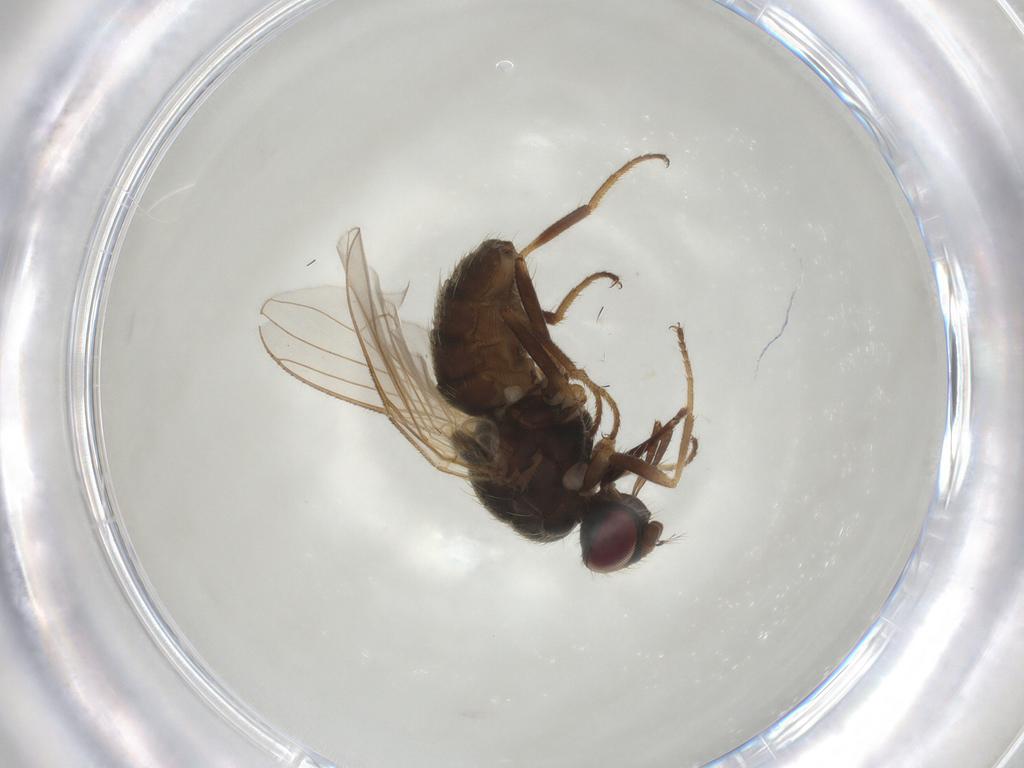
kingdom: Animalia
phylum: Arthropoda
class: Insecta
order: Diptera
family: Muscidae
